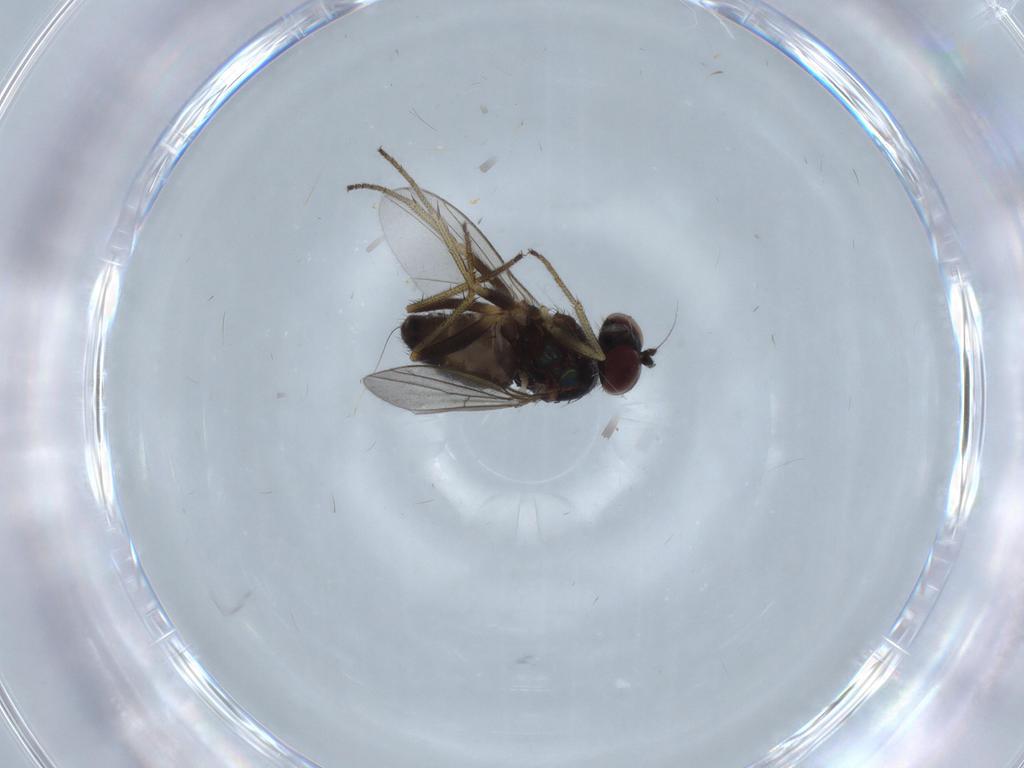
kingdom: Animalia
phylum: Arthropoda
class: Insecta
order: Diptera
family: Dolichopodidae
